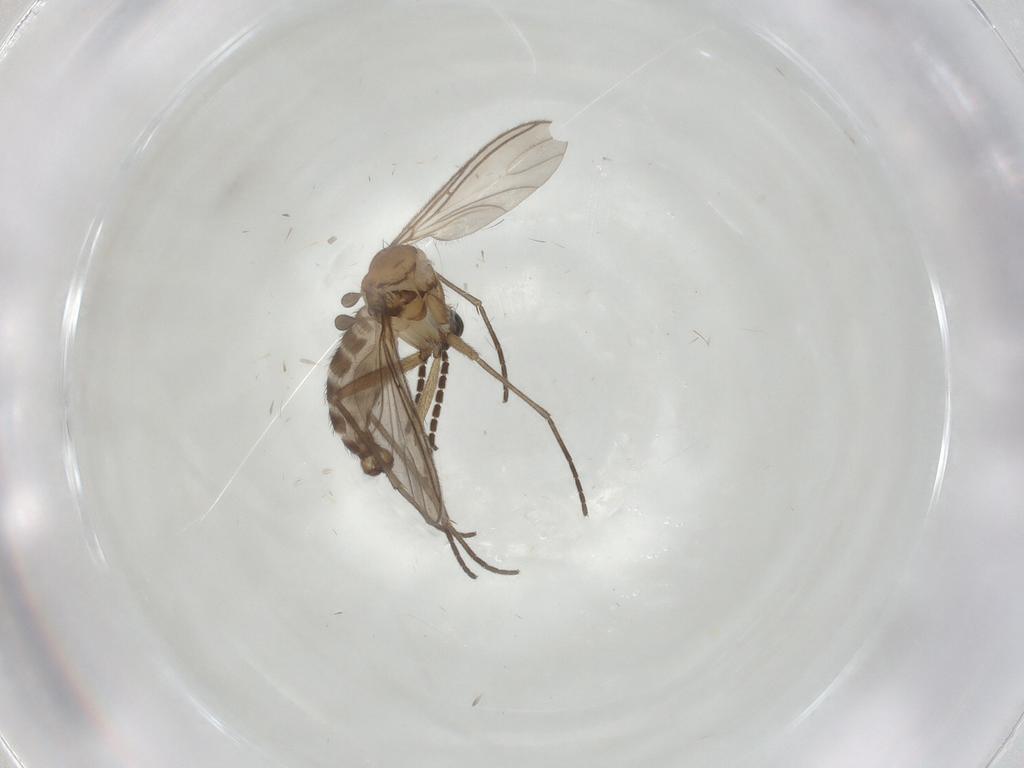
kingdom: Animalia
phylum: Arthropoda
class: Insecta
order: Diptera
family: Sciaridae
